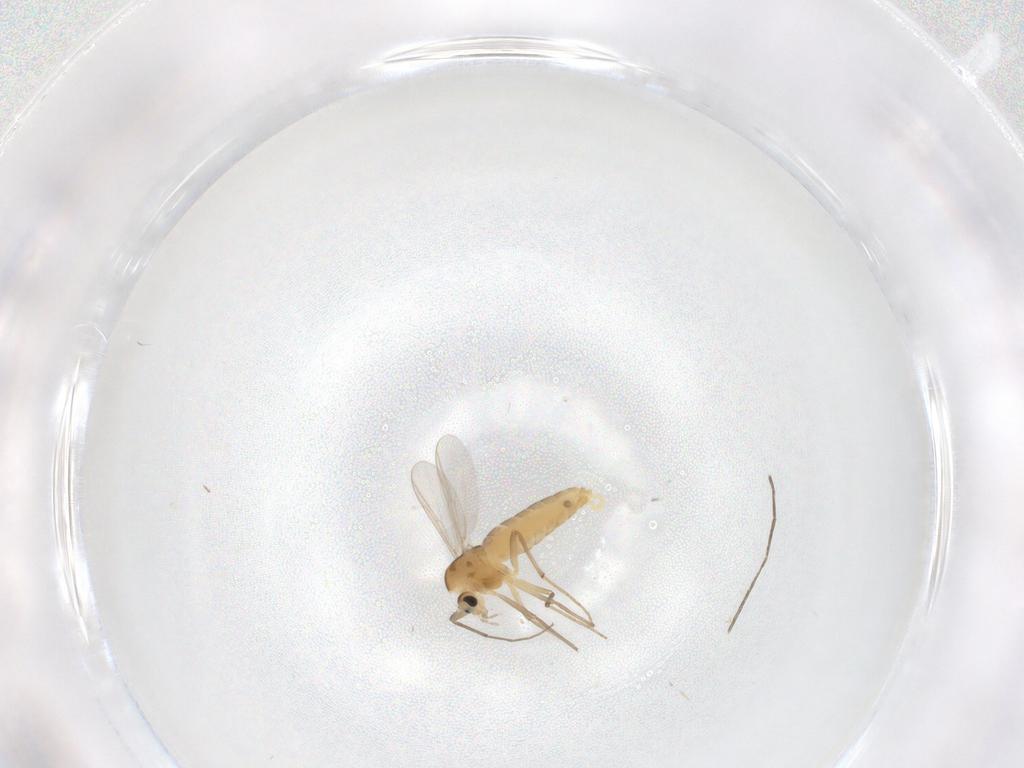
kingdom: Animalia
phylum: Arthropoda
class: Insecta
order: Diptera
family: Chironomidae
